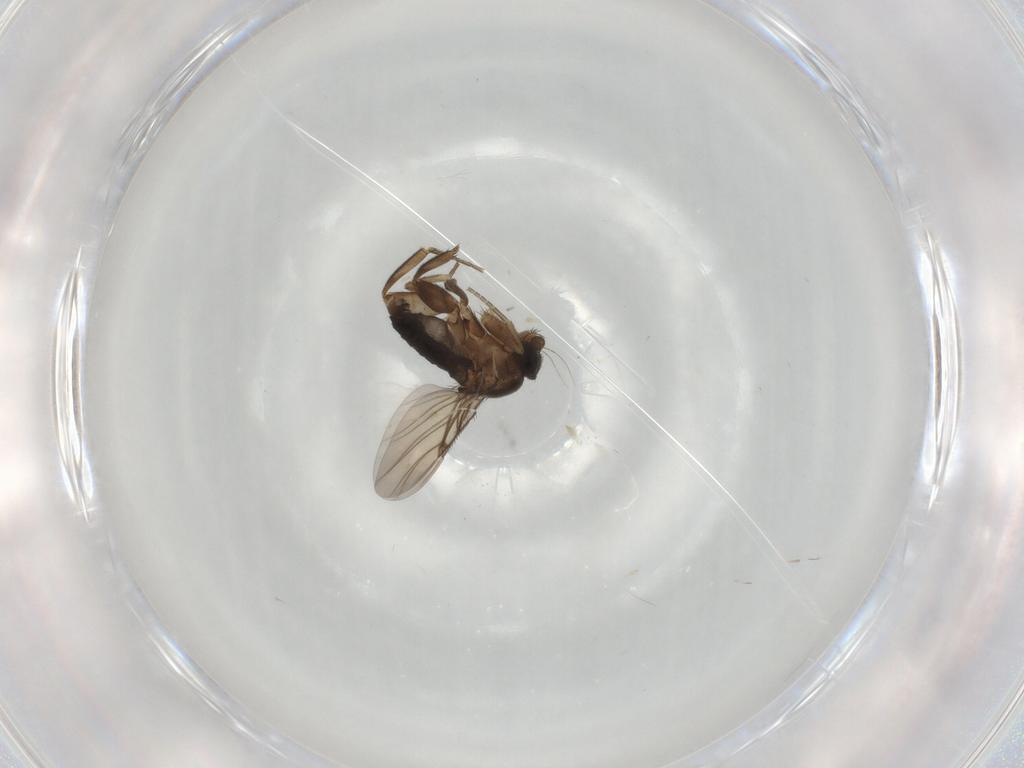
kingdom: Animalia
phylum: Arthropoda
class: Insecta
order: Diptera
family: Phoridae
